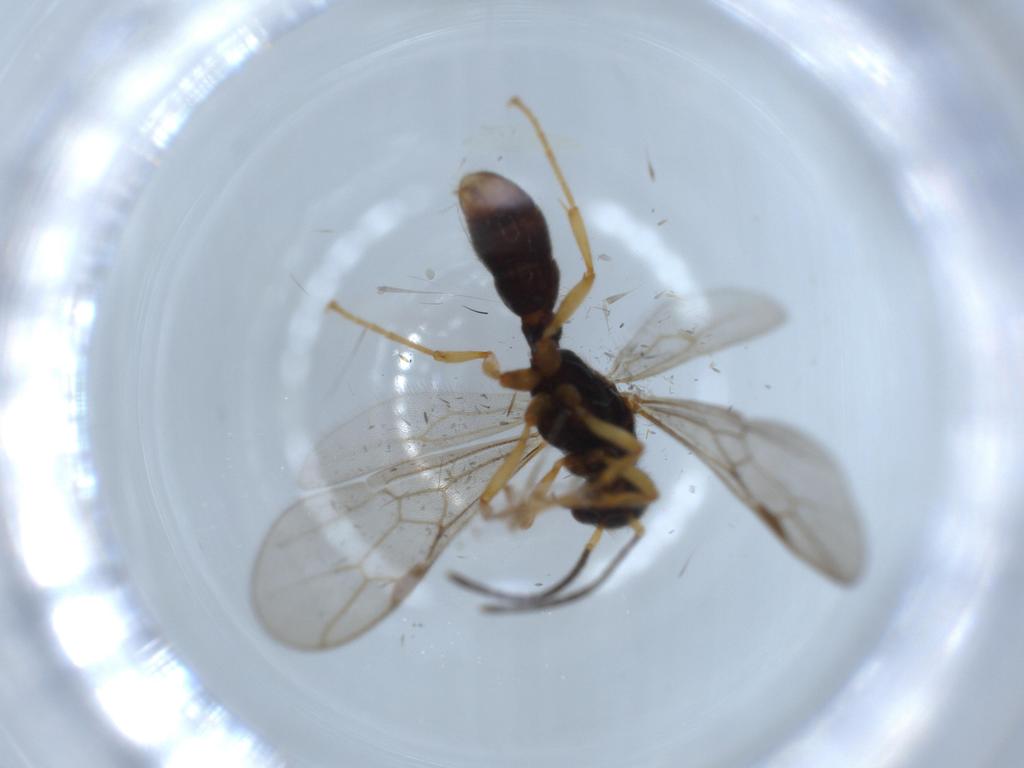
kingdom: Animalia
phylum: Arthropoda
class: Insecta
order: Hymenoptera
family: Formicidae
